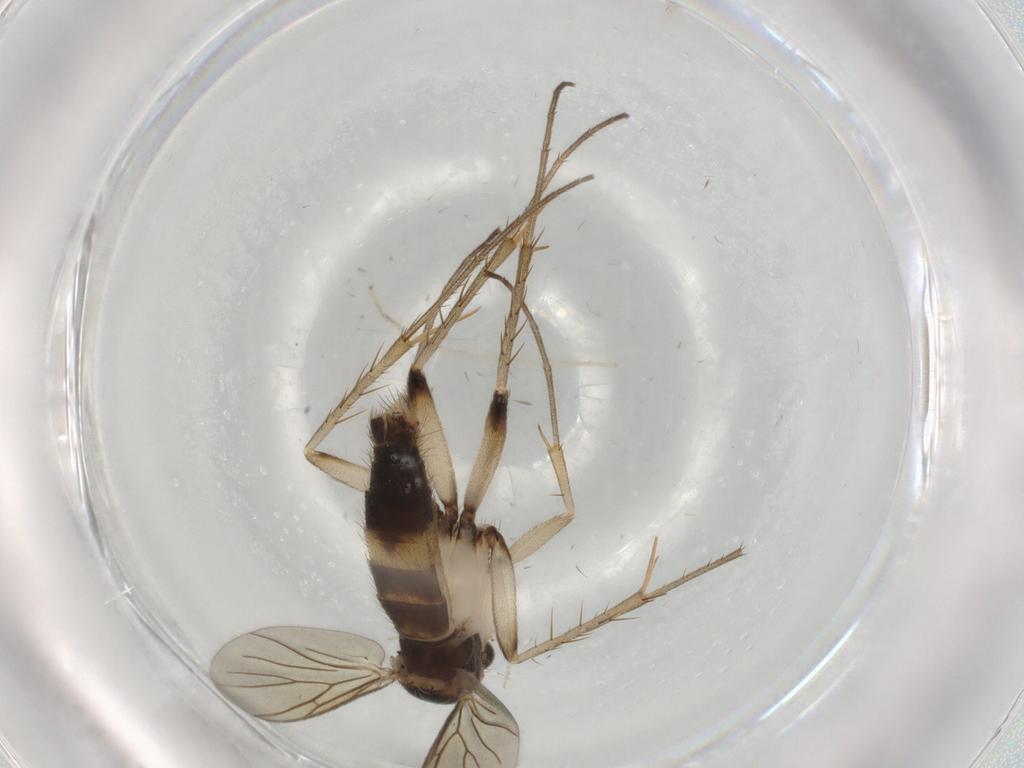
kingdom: Animalia
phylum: Arthropoda
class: Insecta
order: Diptera
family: Mycetophilidae
